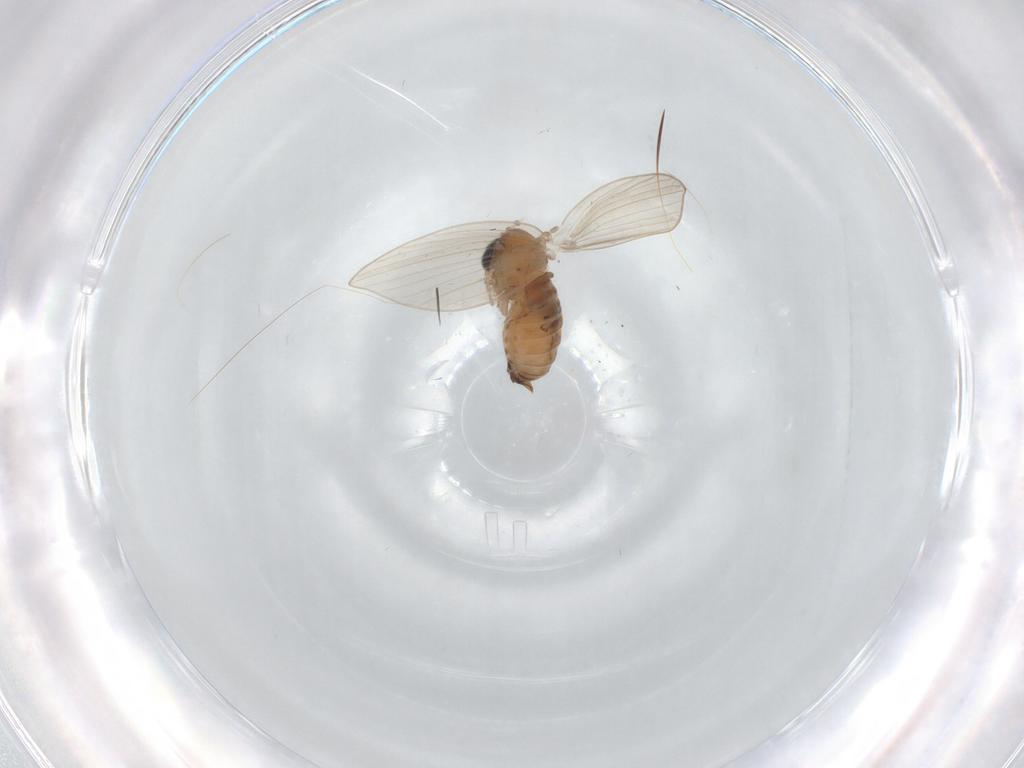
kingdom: Animalia
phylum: Arthropoda
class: Insecta
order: Diptera
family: Psychodidae
